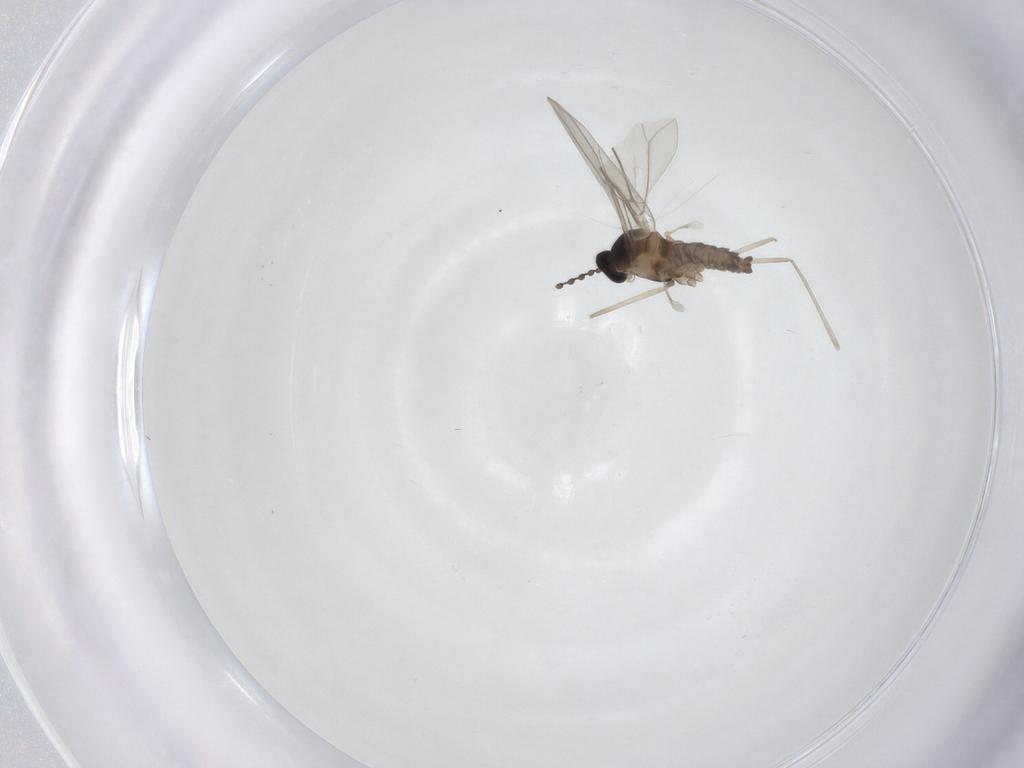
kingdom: Animalia
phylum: Arthropoda
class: Insecta
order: Diptera
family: Cecidomyiidae
